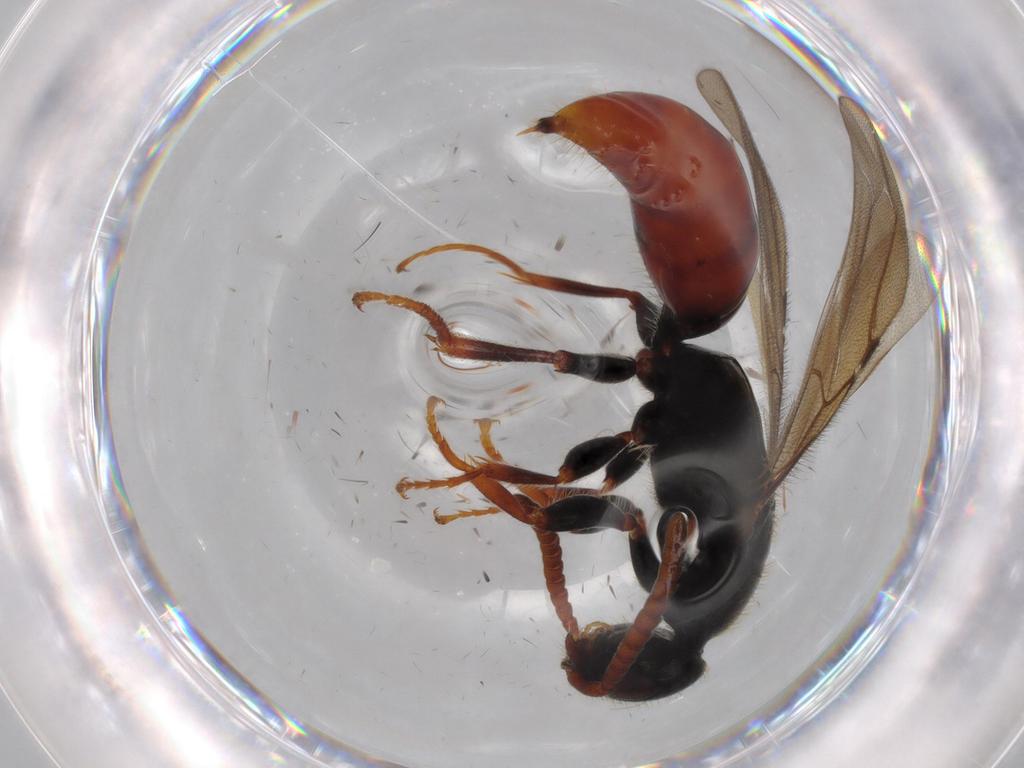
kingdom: Animalia
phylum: Arthropoda
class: Insecta
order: Hymenoptera
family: Bethylidae
